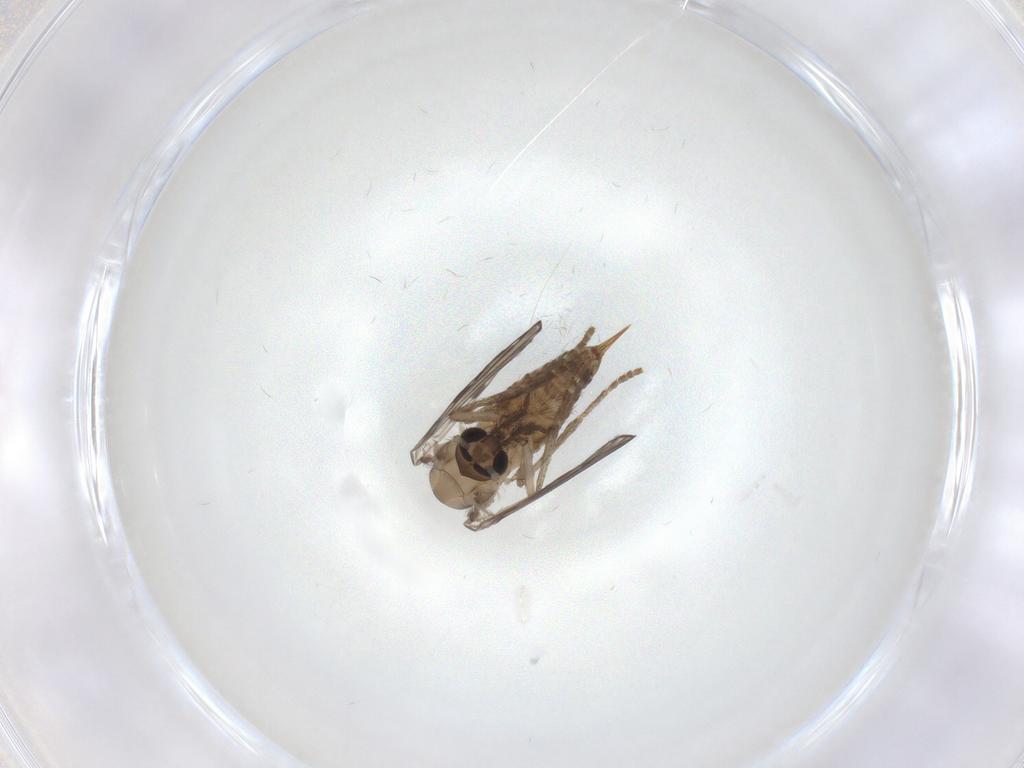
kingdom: Animalia
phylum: Arthropoda
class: Insecta
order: Diptera
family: Psychodidae
